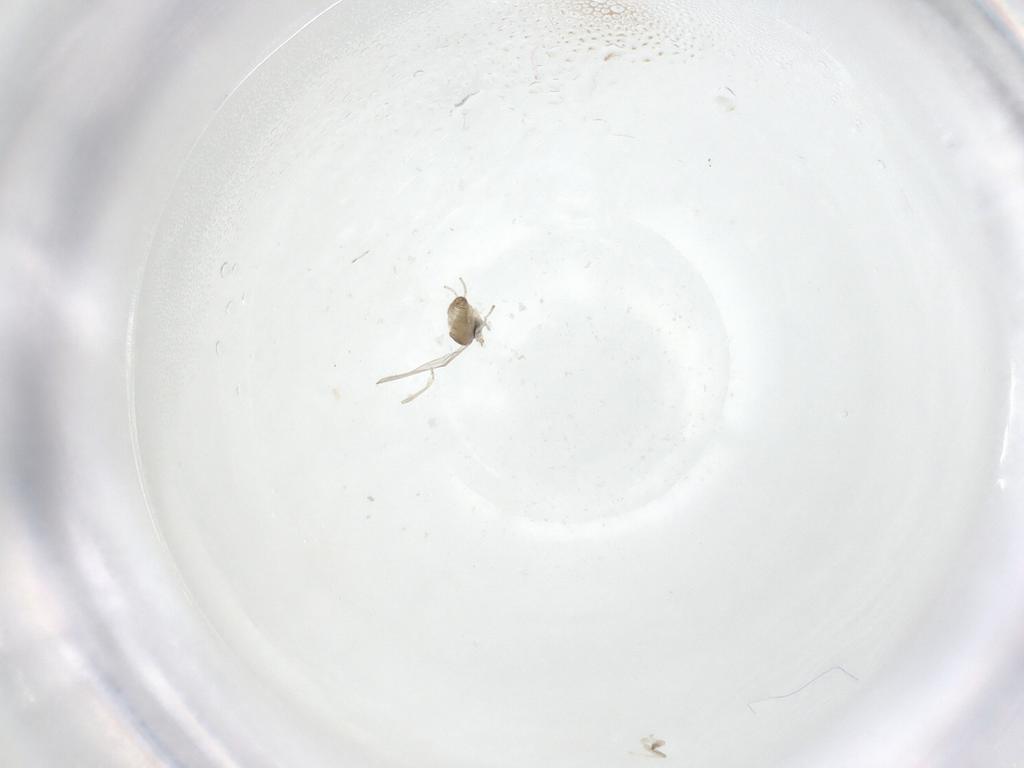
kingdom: Animalia
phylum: Arthropoda
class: Insecta
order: Diptera
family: Cecidomyiidae
